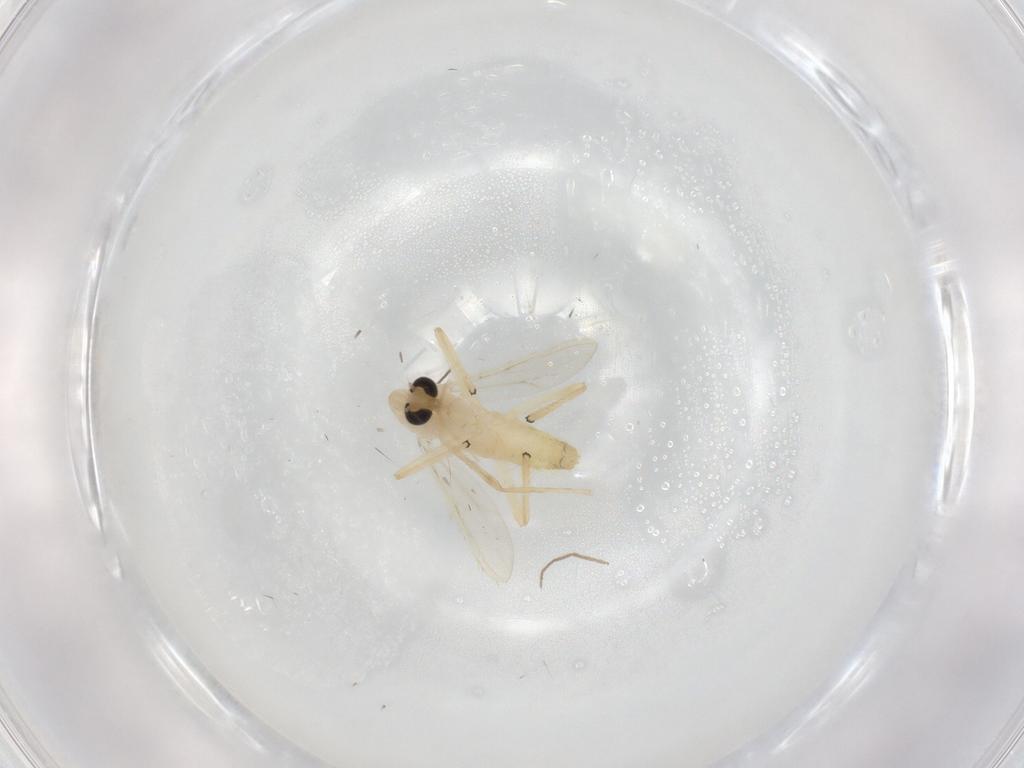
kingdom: Animalia
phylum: Arthropoda
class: Insecta
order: Diptera
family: Chironomidae
